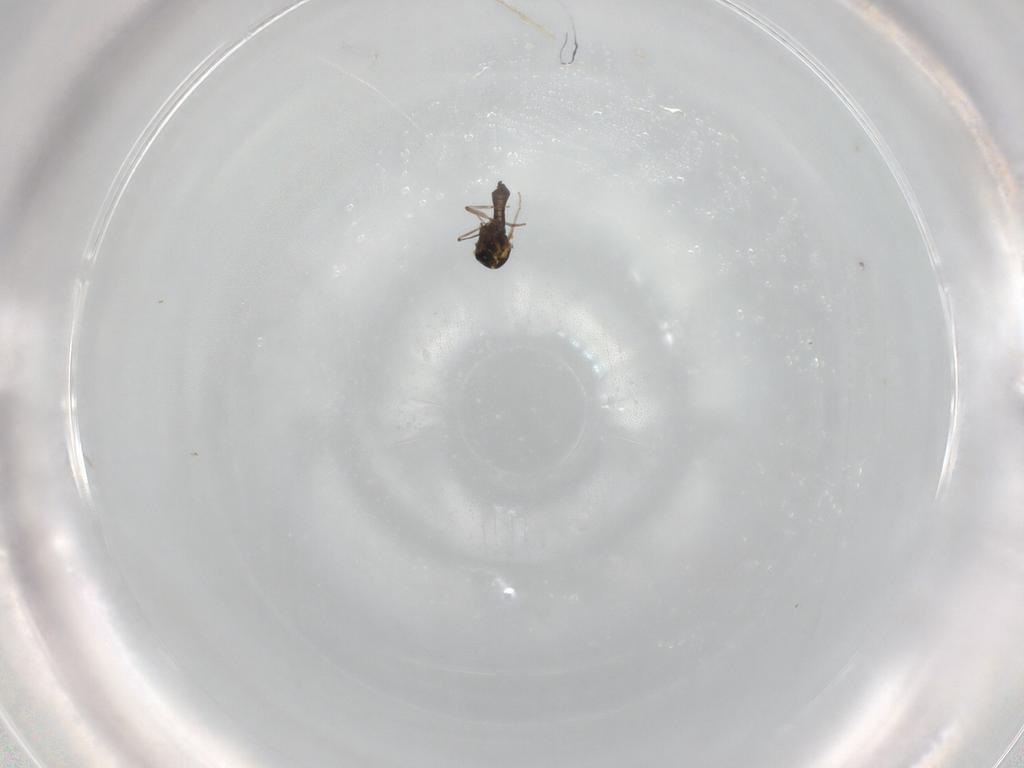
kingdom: Animalia
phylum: Arthropoda
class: Insecta
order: Diptera
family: Ceratopogonidae
